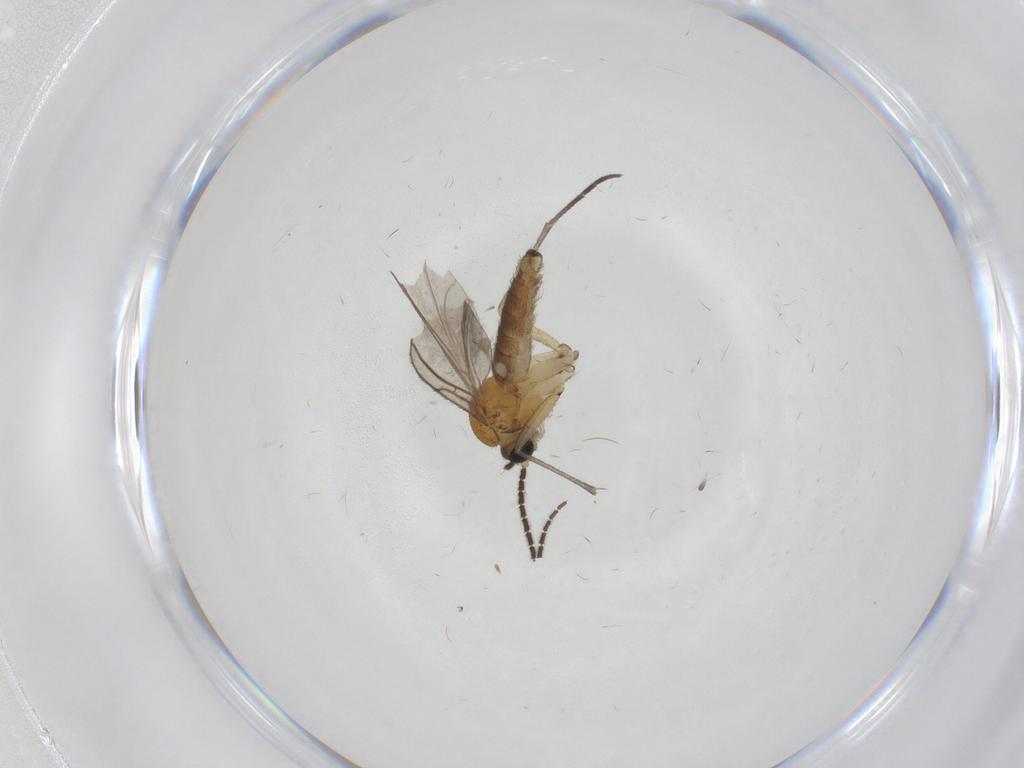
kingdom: Animalia
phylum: Arthropoda
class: Insecta
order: Diptera
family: Sciaridae
